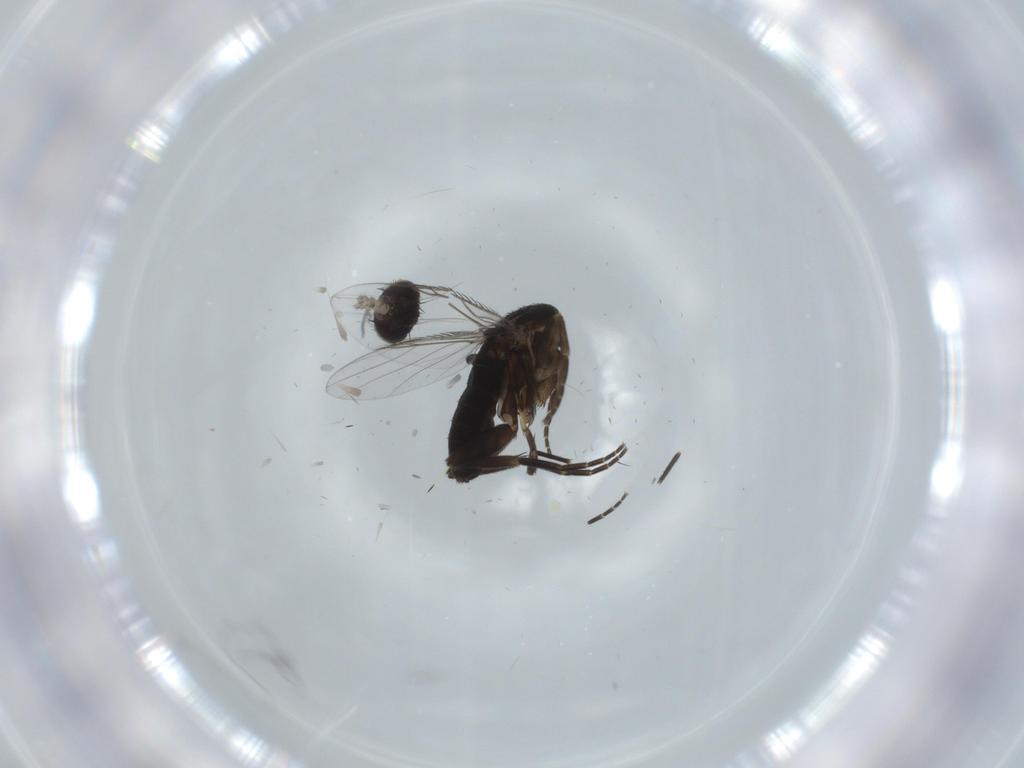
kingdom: Animalia
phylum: Arthropoda
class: Insecta
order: Diptera
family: Phoridae
